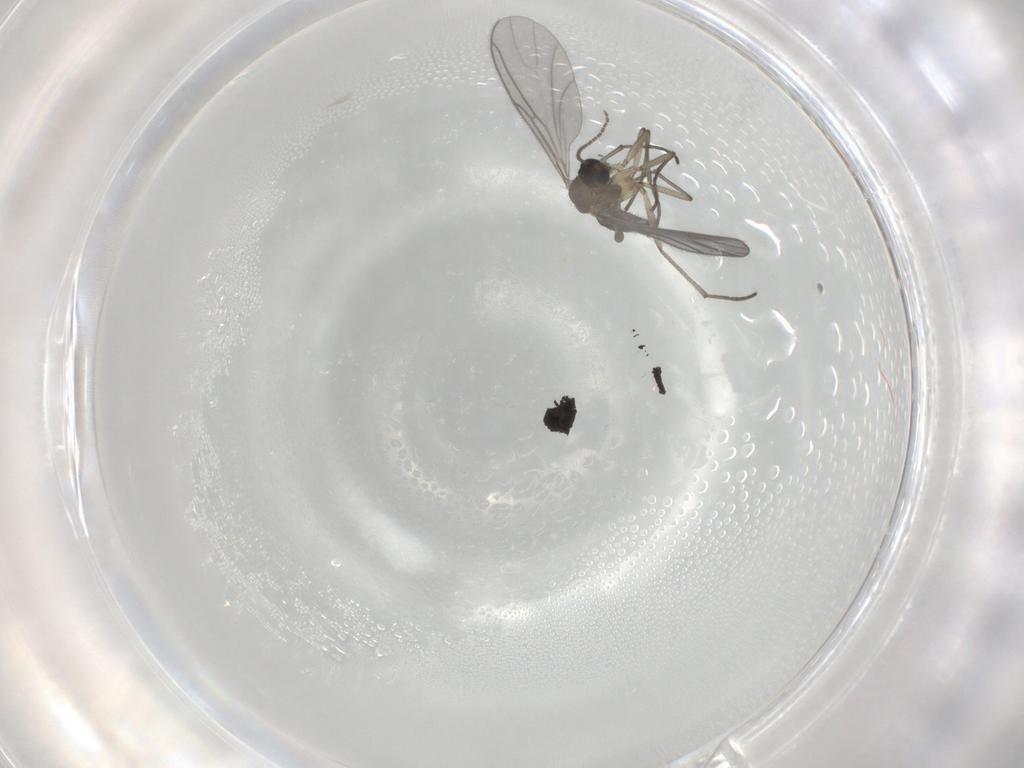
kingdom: Animalia
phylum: Arthropoda
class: Insecta
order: Diptera
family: Sciaridae
